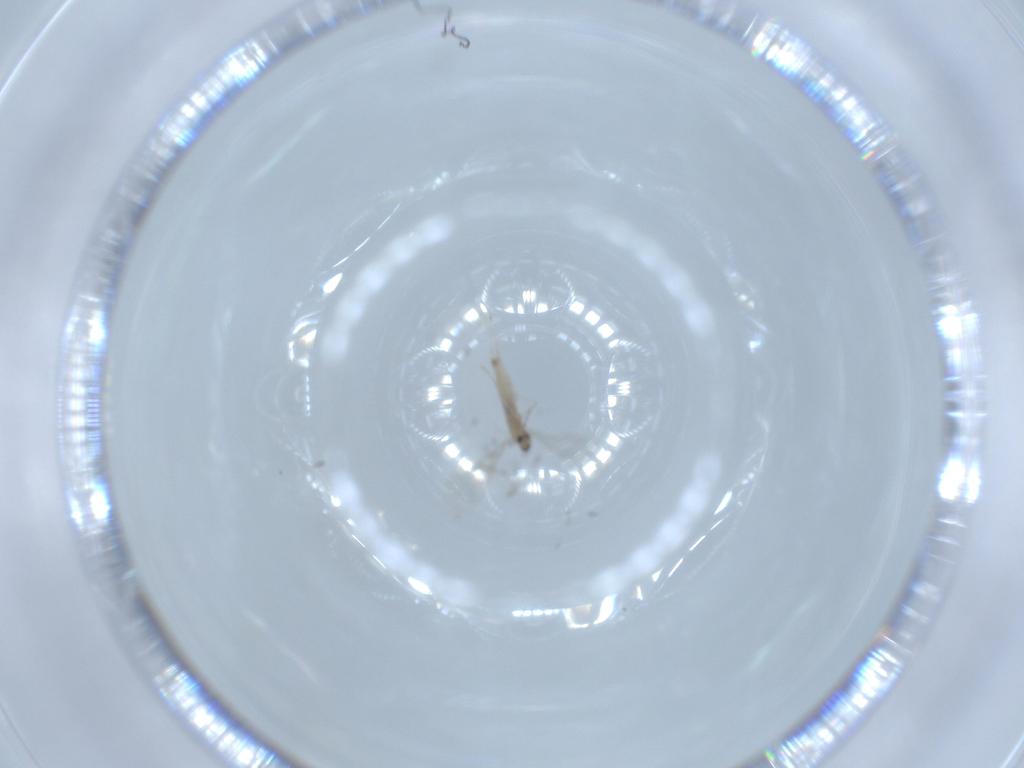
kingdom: Animalia
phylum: Arthropoda
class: Insecta
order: Diptera
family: Cecidomyiidae
